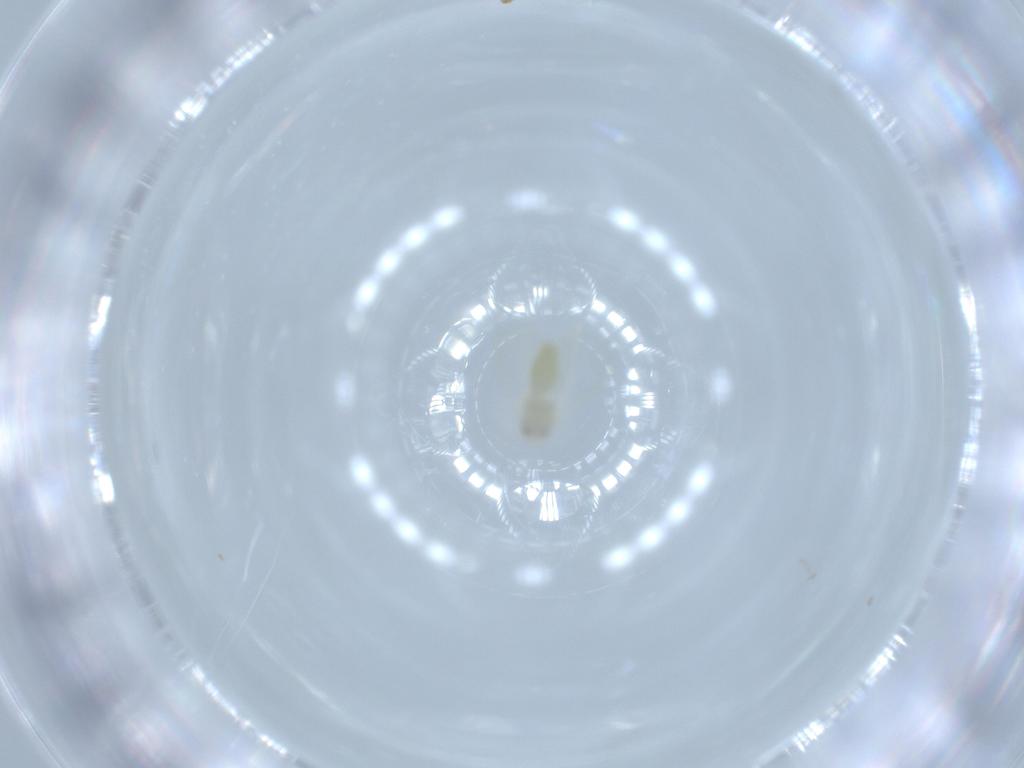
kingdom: Animalia
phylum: Arthropoda
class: Insecta
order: Hemiptera
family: Aleyrodidae
